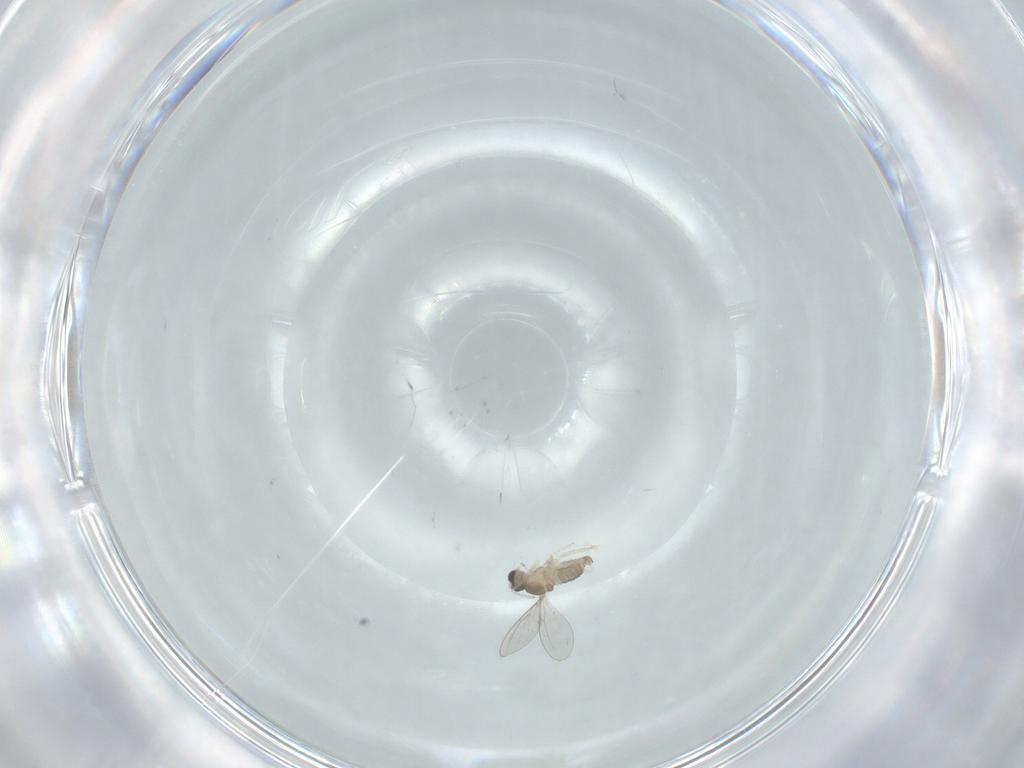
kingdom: Animalia
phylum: Arthropoda
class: Insecta
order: Diptera
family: Cecidomyiidae
